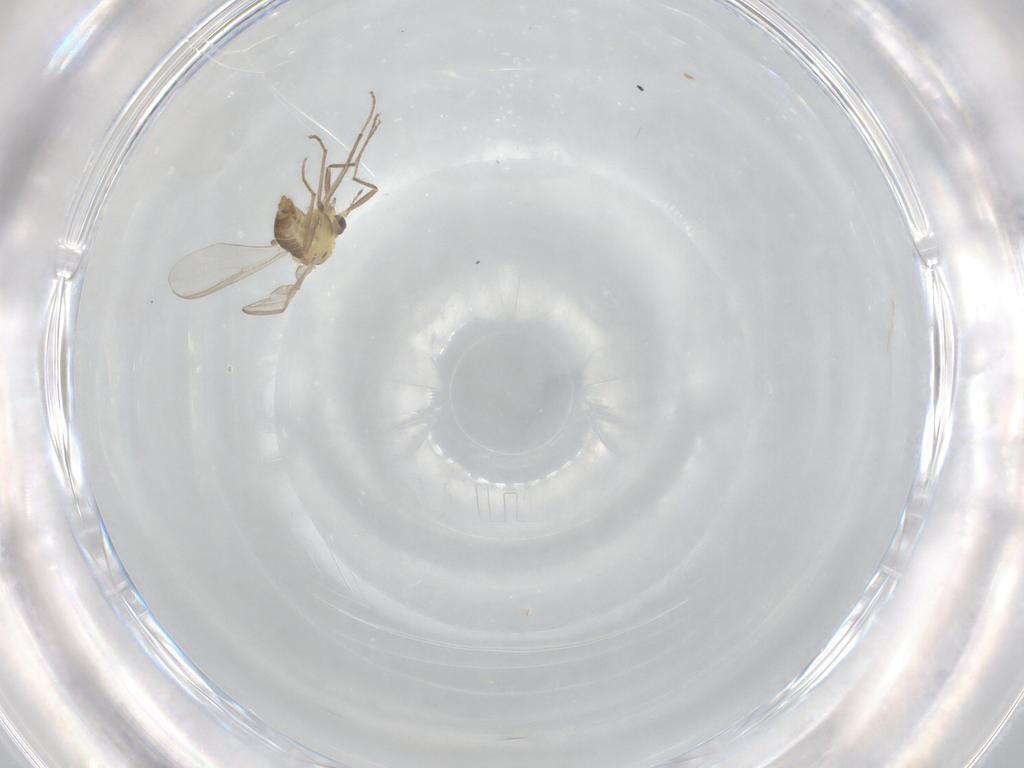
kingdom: Animalia
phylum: Arthropoda
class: Insecta
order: Diptera
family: Chironomidae
